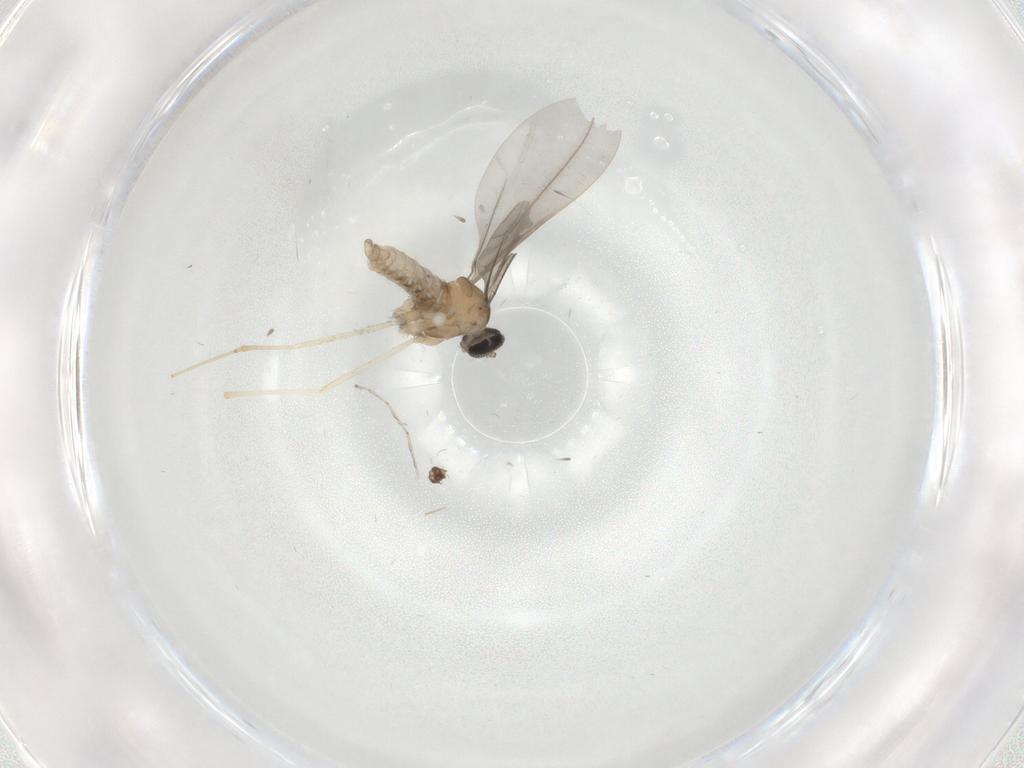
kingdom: Animalia
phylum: Arthropoda
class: Insecta
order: Diptera
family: Cecidomyiidae
